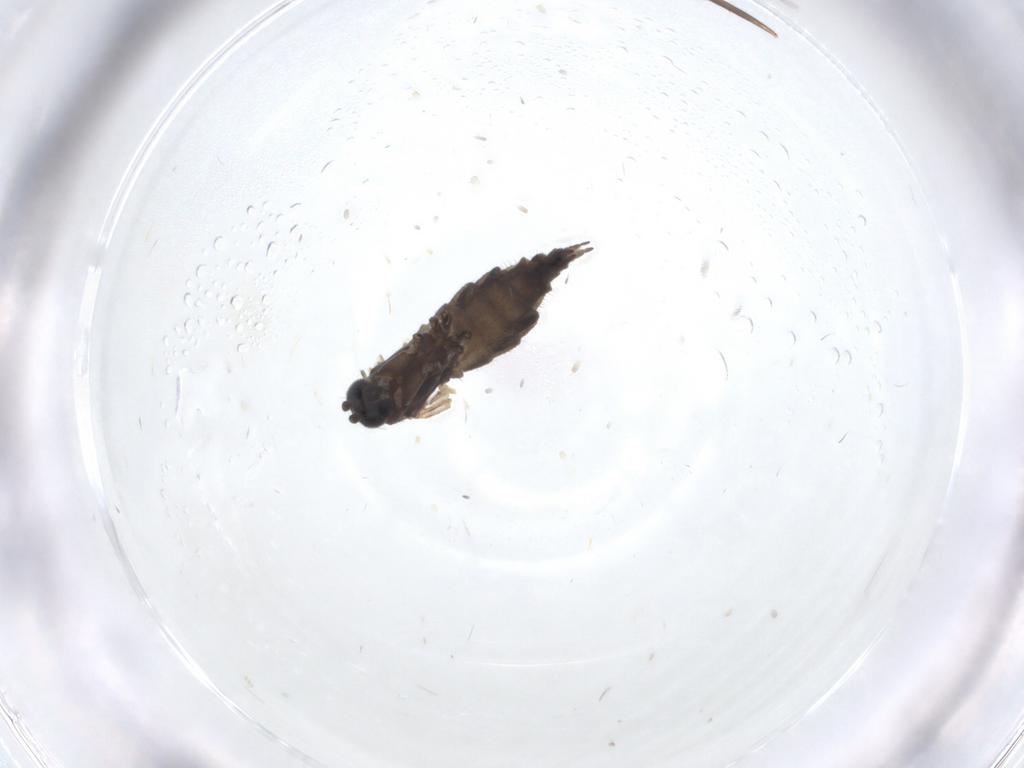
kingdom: Animalia
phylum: Arthropoda
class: Insecta
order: Diptera
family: Sciaridae
